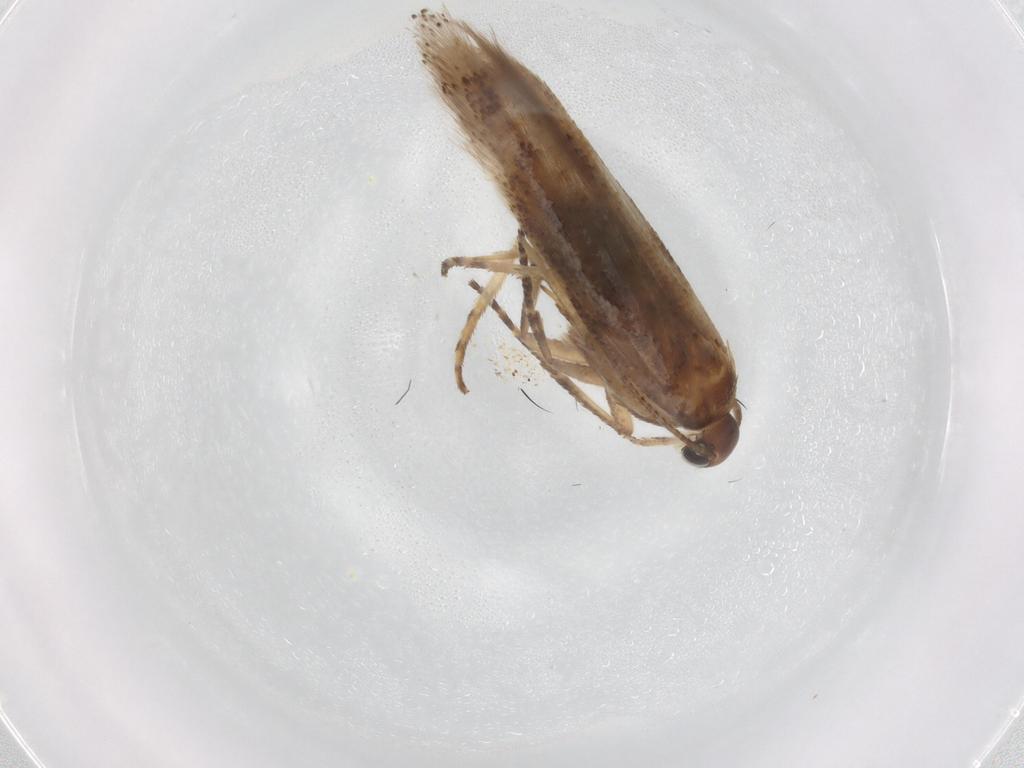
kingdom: Animalia
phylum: Arthropoda
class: Insecta
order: Lepidoptera
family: Gelechiidae
